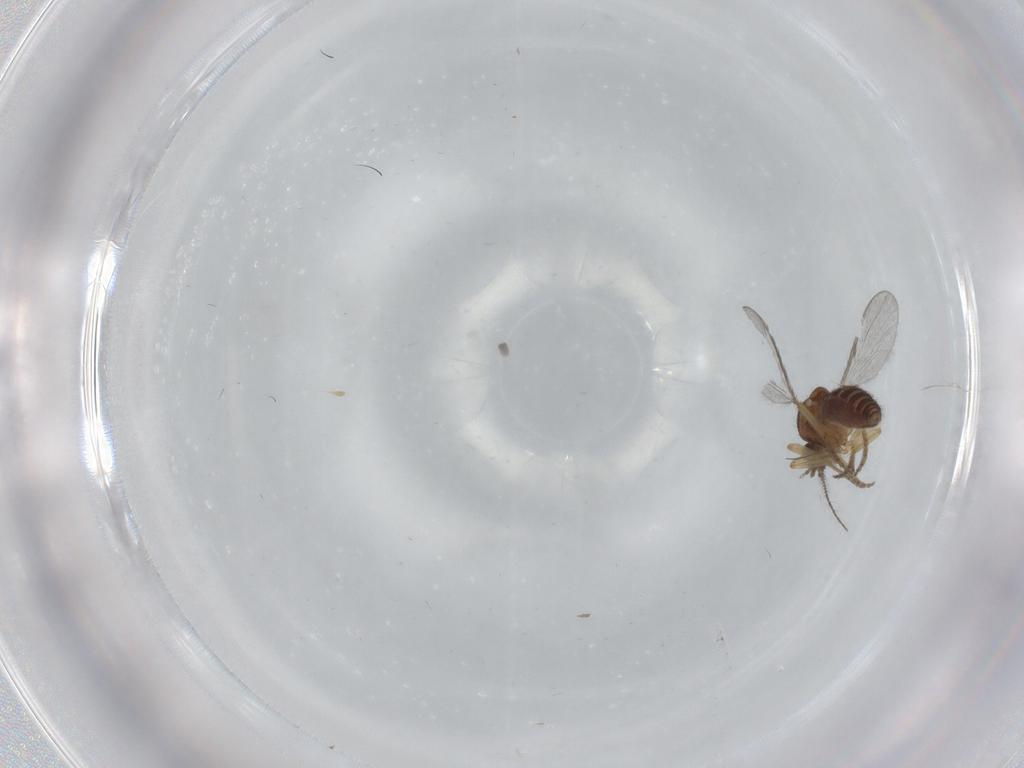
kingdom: Animalia
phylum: Arthropoda
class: Insecta
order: Diptera
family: Ceratopogonidae
